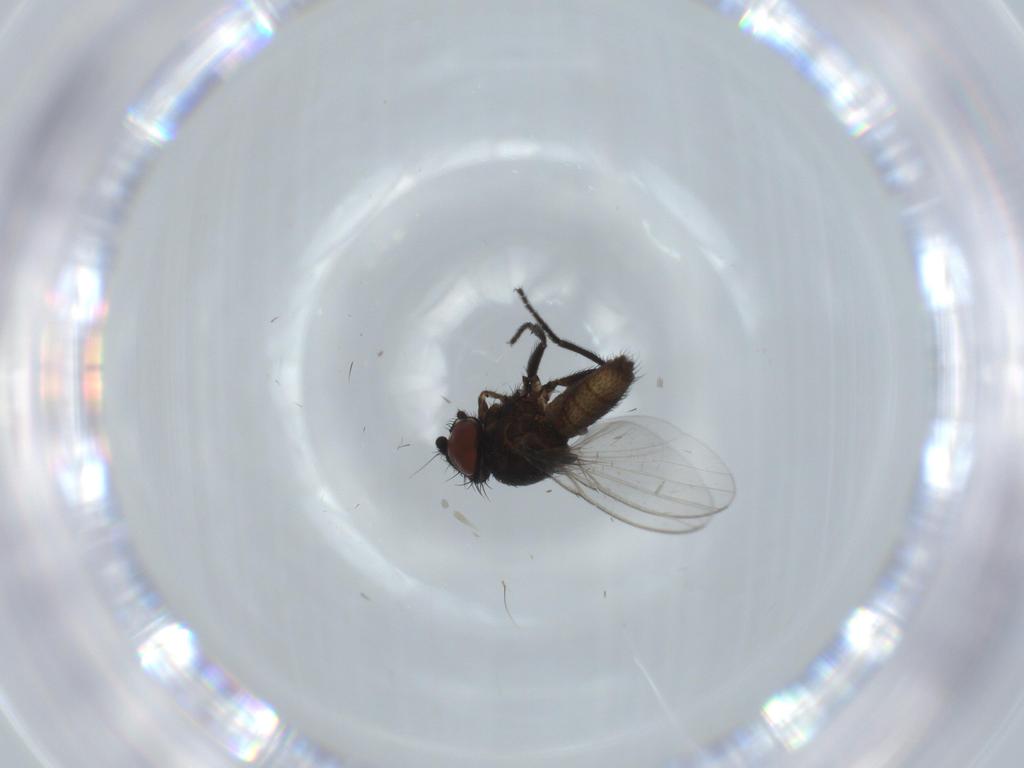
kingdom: Animalia
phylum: Arthropoda
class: Insecta
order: Diptera
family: Milichiidae
